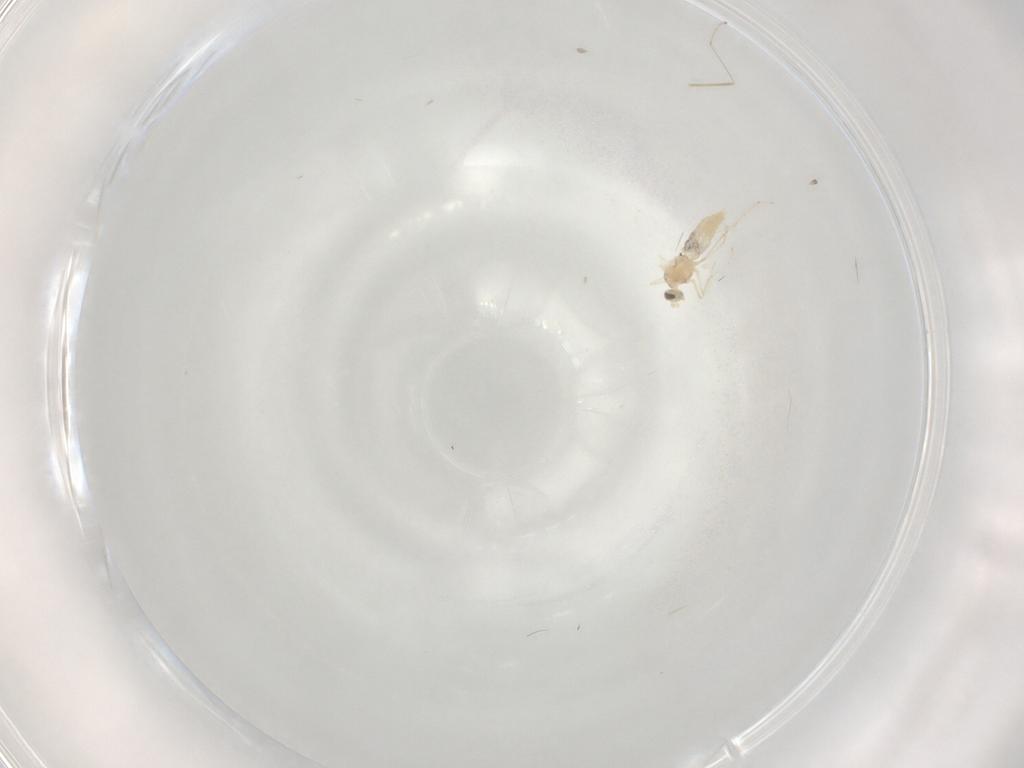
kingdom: Animalia
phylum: Arthropoda
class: Insecta
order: Diptera
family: Cecidomyiidae
